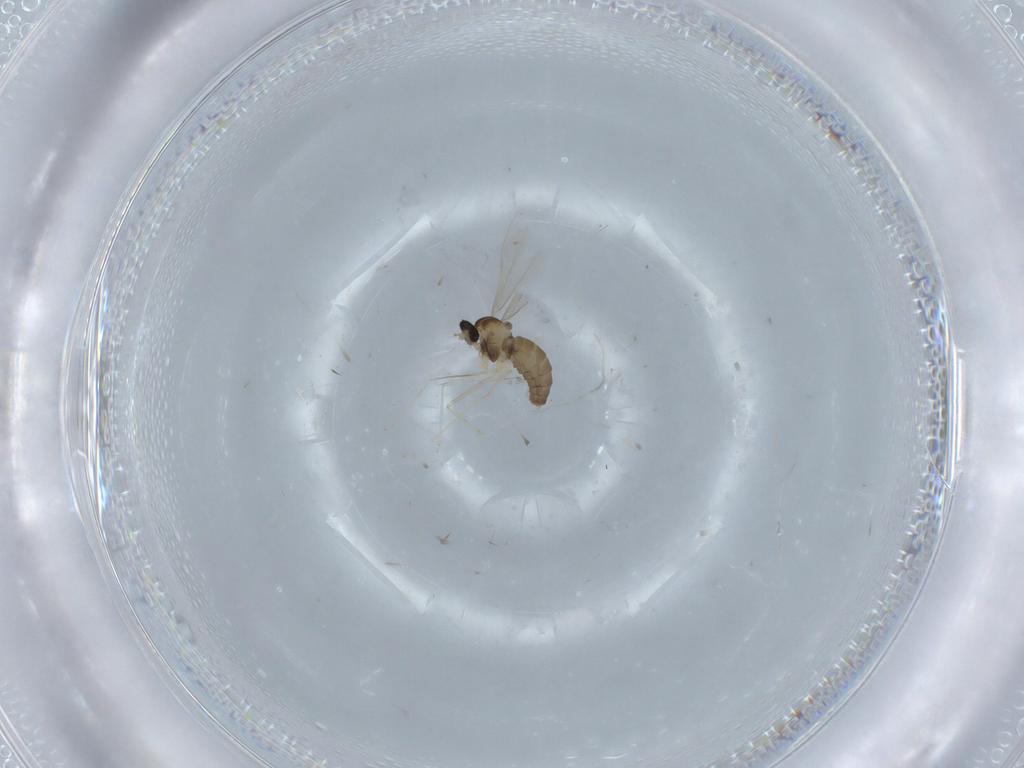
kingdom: Animalia
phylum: Arthropoda
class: Insecta
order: Diptera
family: Cecidomyiidae
